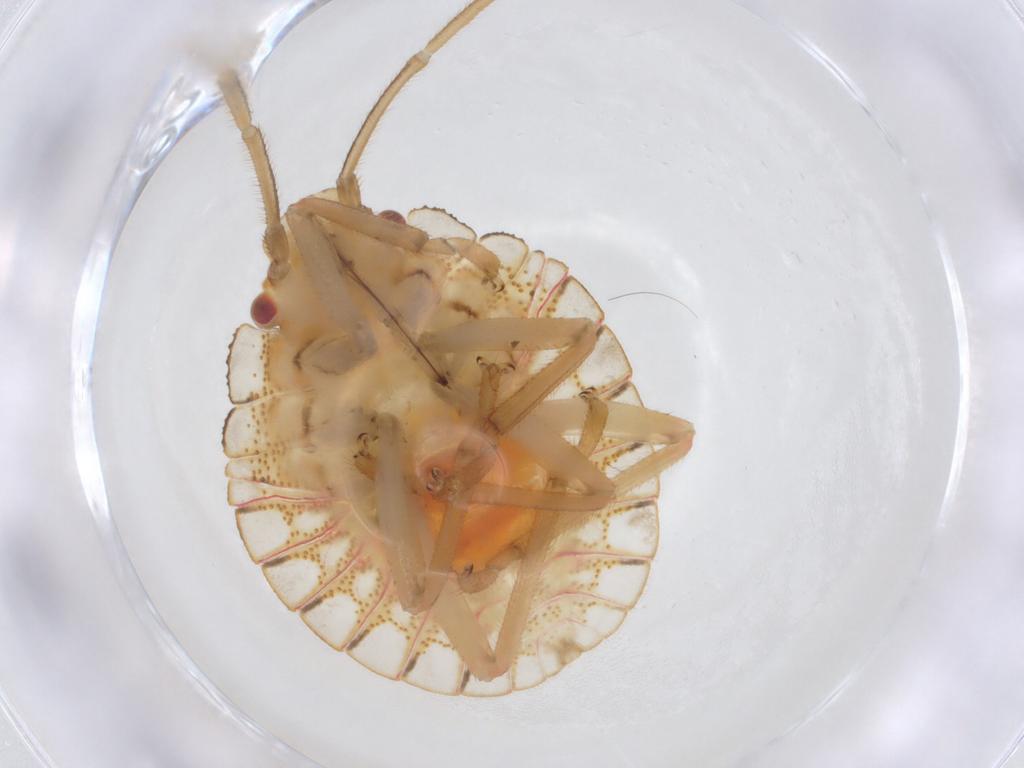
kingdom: Animalia
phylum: Arthropoda
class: Insecta
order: Hemiptera
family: Pentatomidae
